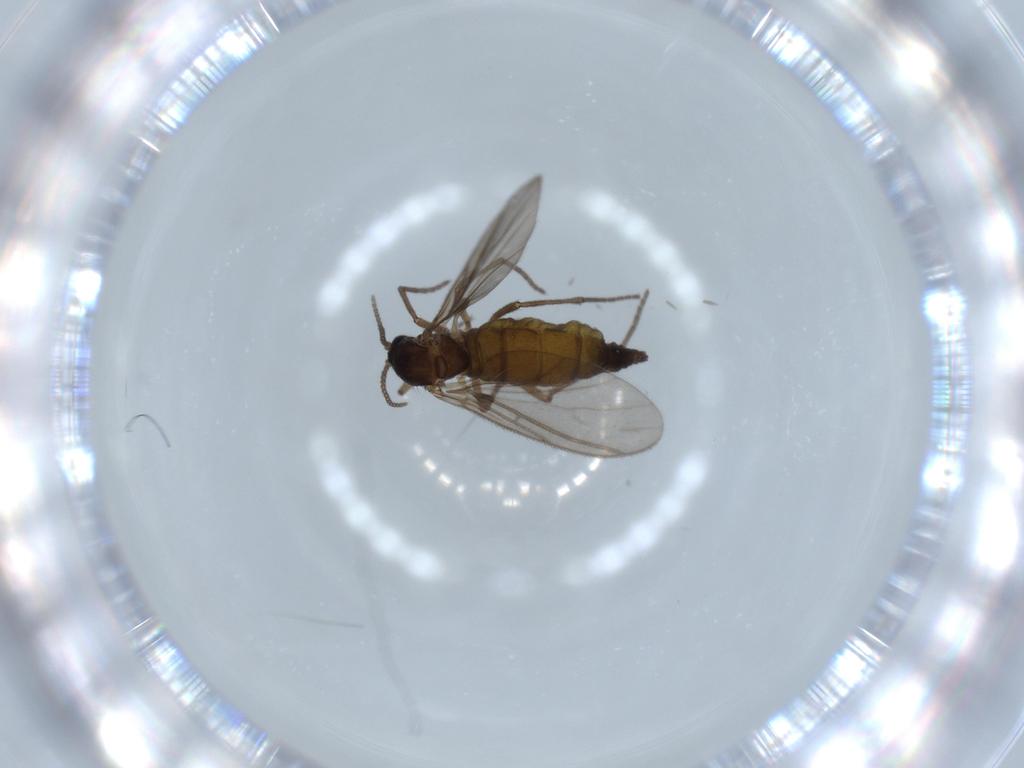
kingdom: Animalia
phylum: Arthropoda
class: Insecta
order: Diptera
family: Sciaridae
